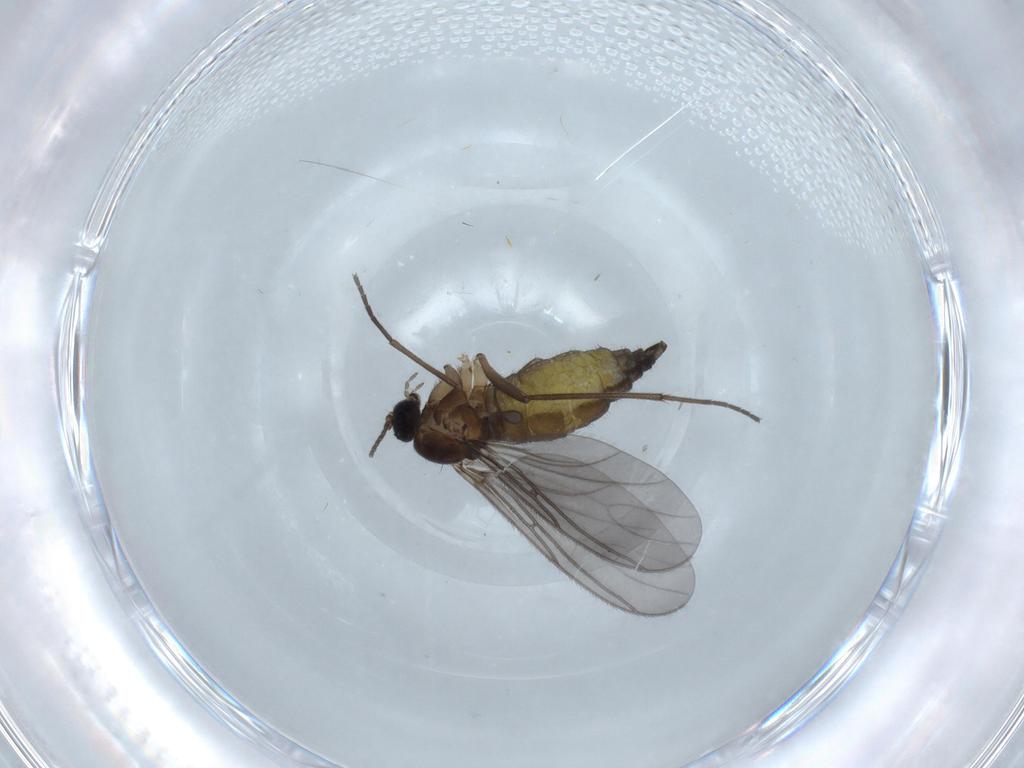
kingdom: Animalia
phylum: Arthropoda
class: Insecta
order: Diptera
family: Sciaridae
